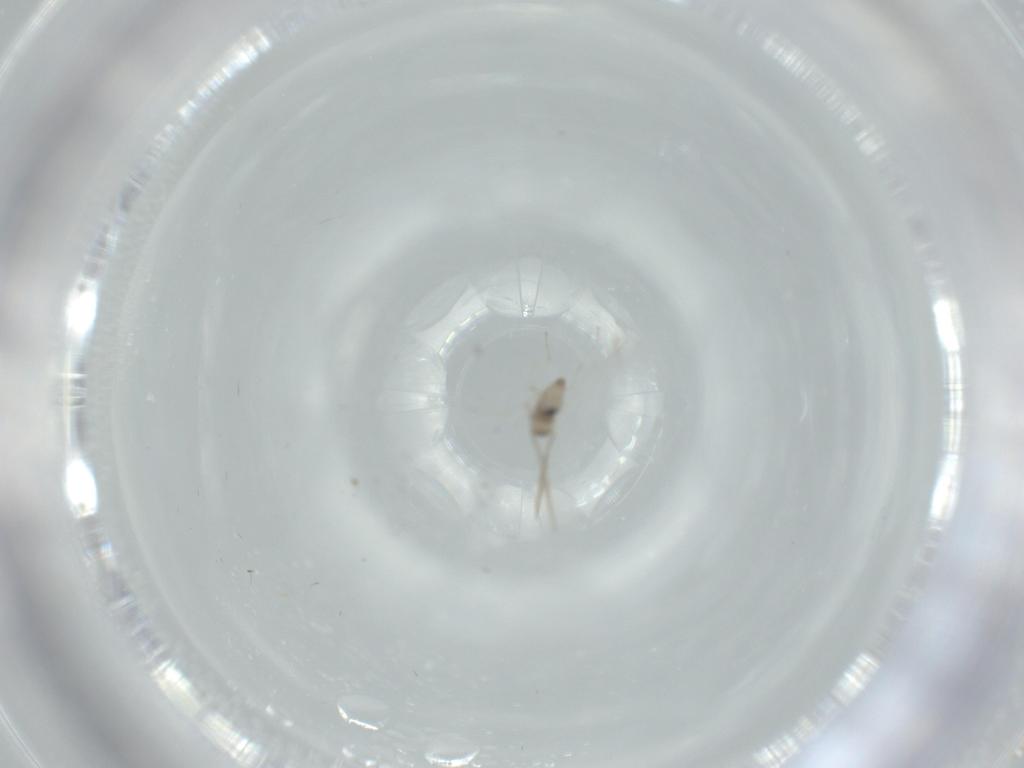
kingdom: Animalia
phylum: Arthropoda
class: Insecta
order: Diptera
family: Cecidomyiidae
